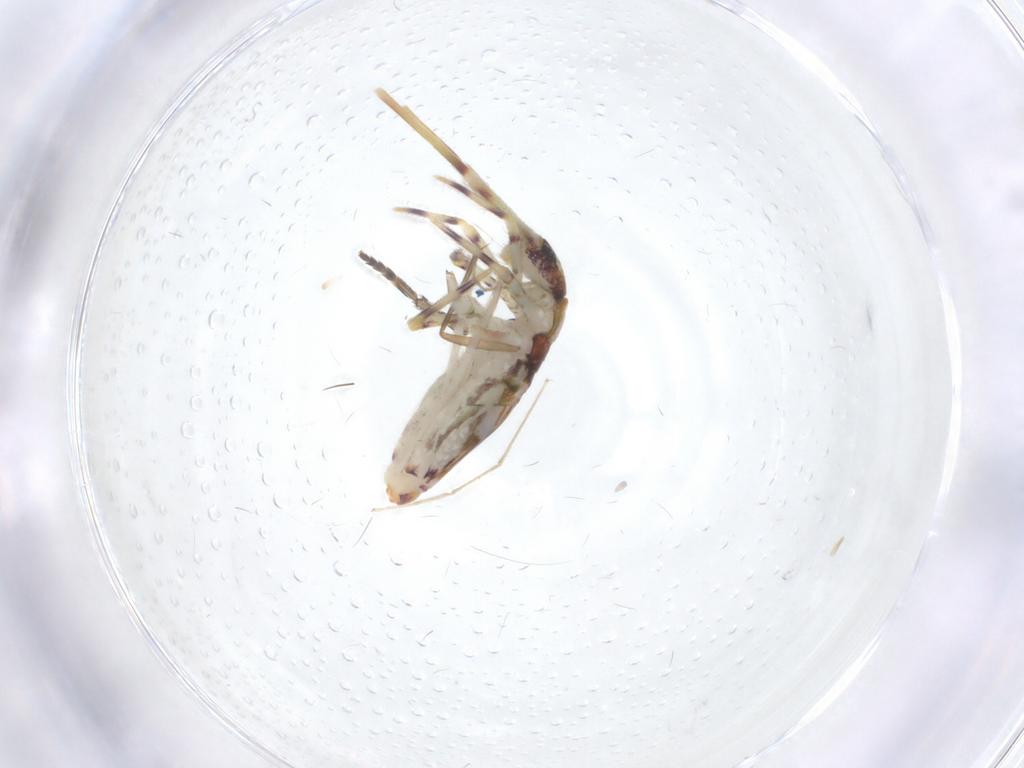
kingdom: Animalia
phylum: Arthropoda
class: Collembola
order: Entomobryomorpha
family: Entomobryidae
